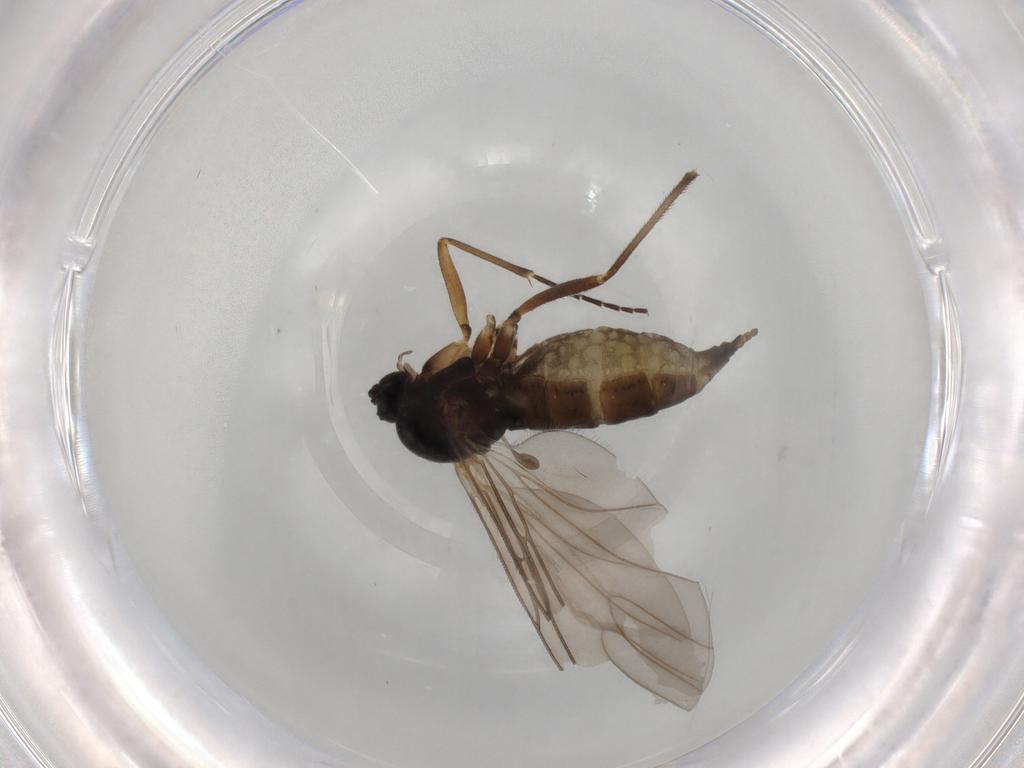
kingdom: Animalia
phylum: Arthropoda
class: Insecta
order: Diptera
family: Sciaridae
